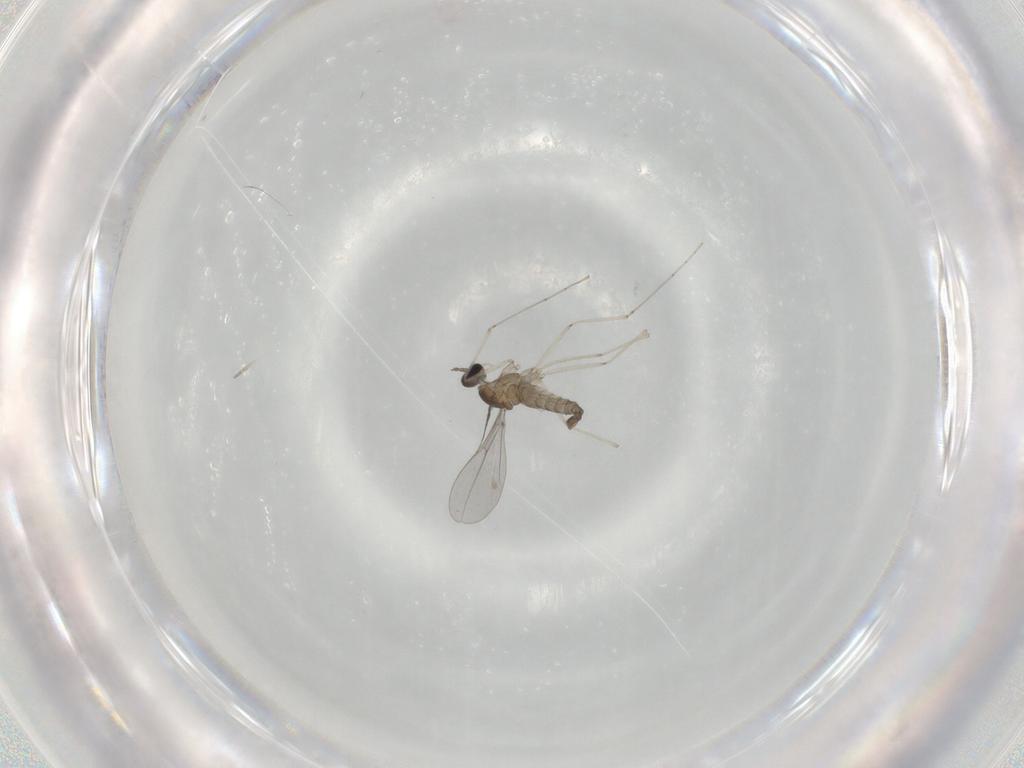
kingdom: Animalia
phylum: Arthropoda
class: Insecta
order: Diptera
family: Cecidomyiidae
